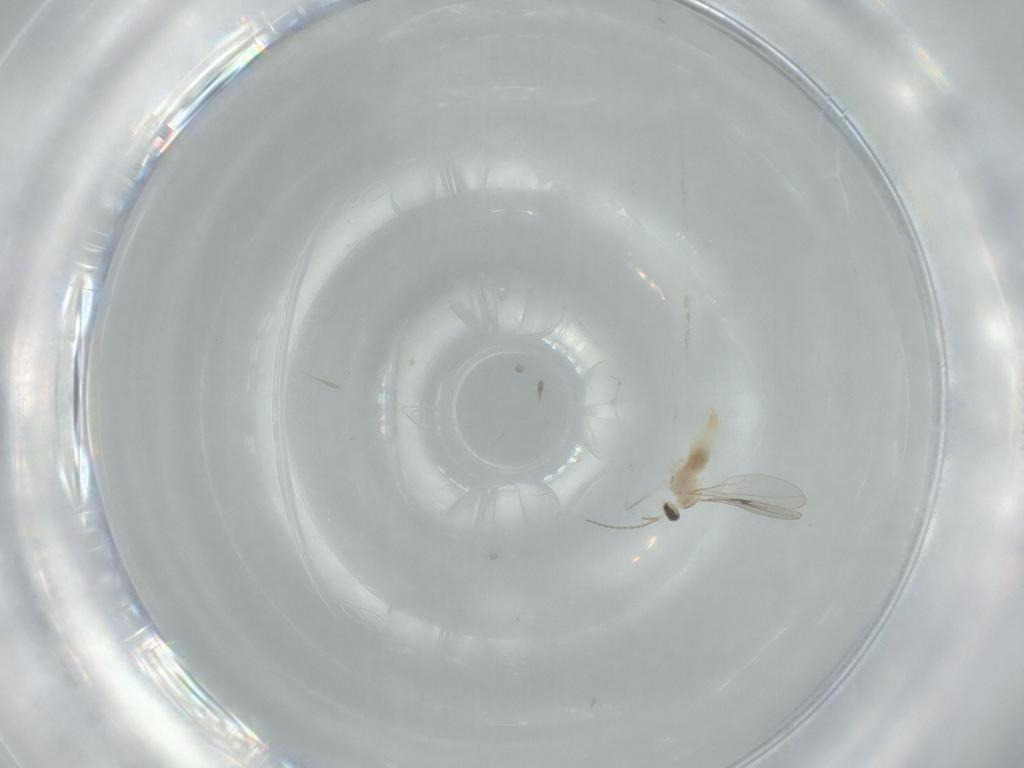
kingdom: Animalia
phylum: Arthropoda
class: Insecta
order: Diptera
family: Milichiidae
